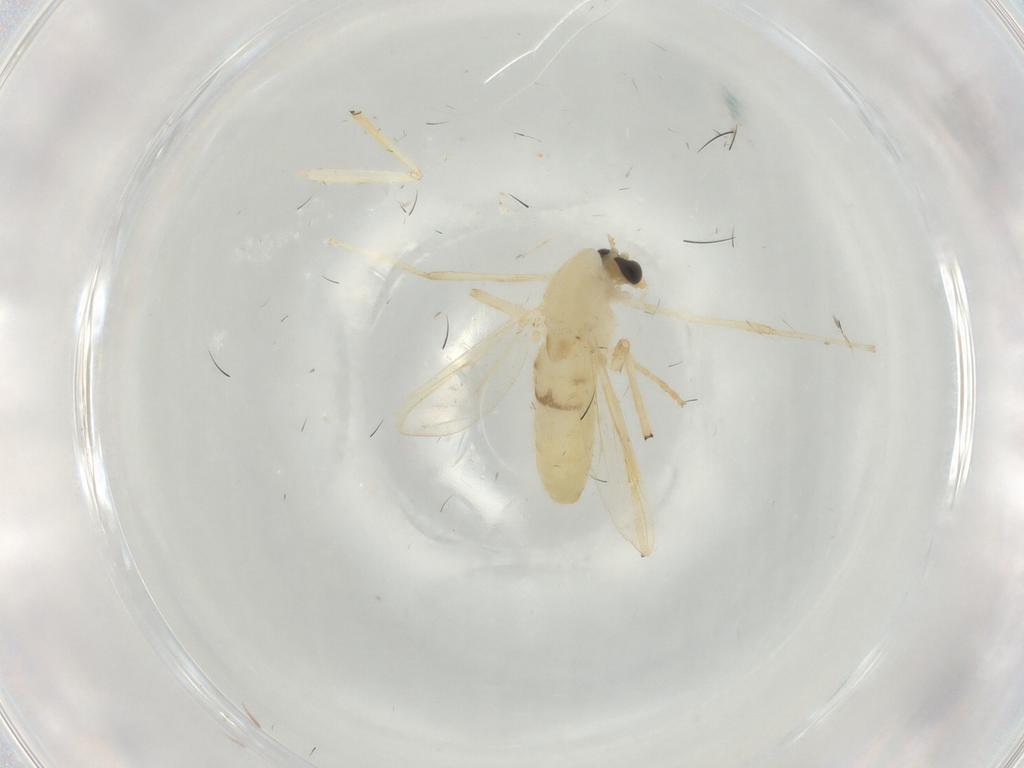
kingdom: Animalia
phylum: Arthropoda
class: Insecta
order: Diptera
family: Chironomidae
